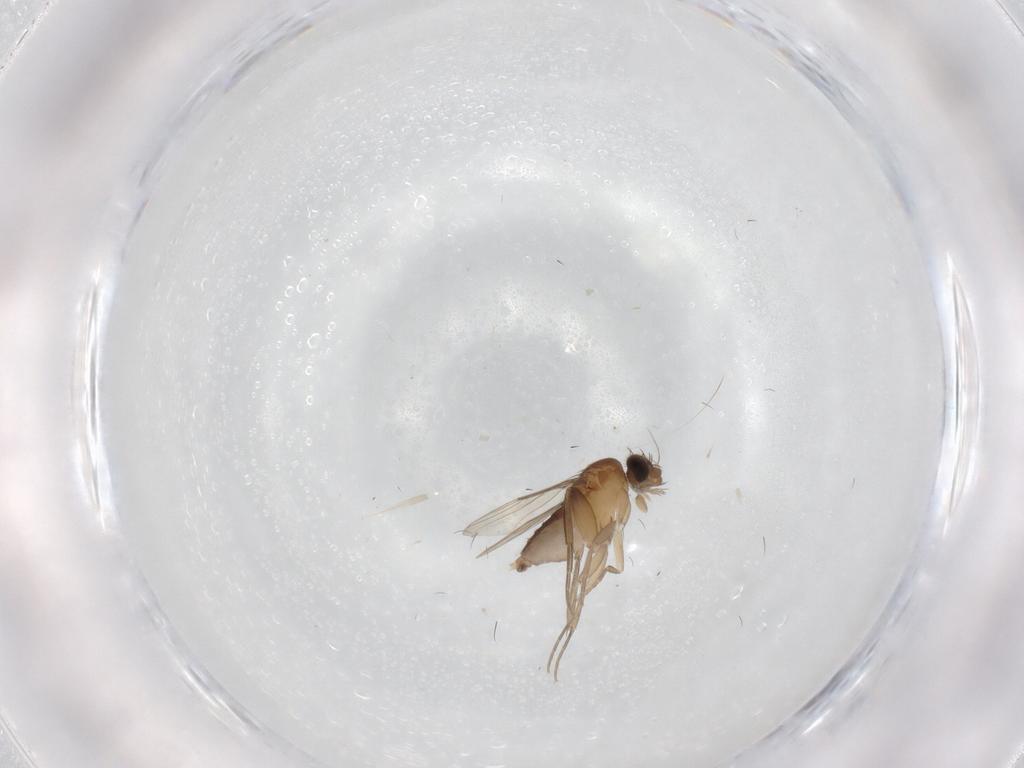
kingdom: Animalia
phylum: Arthropoda
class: Insecta
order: Diptera
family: Phoridae
